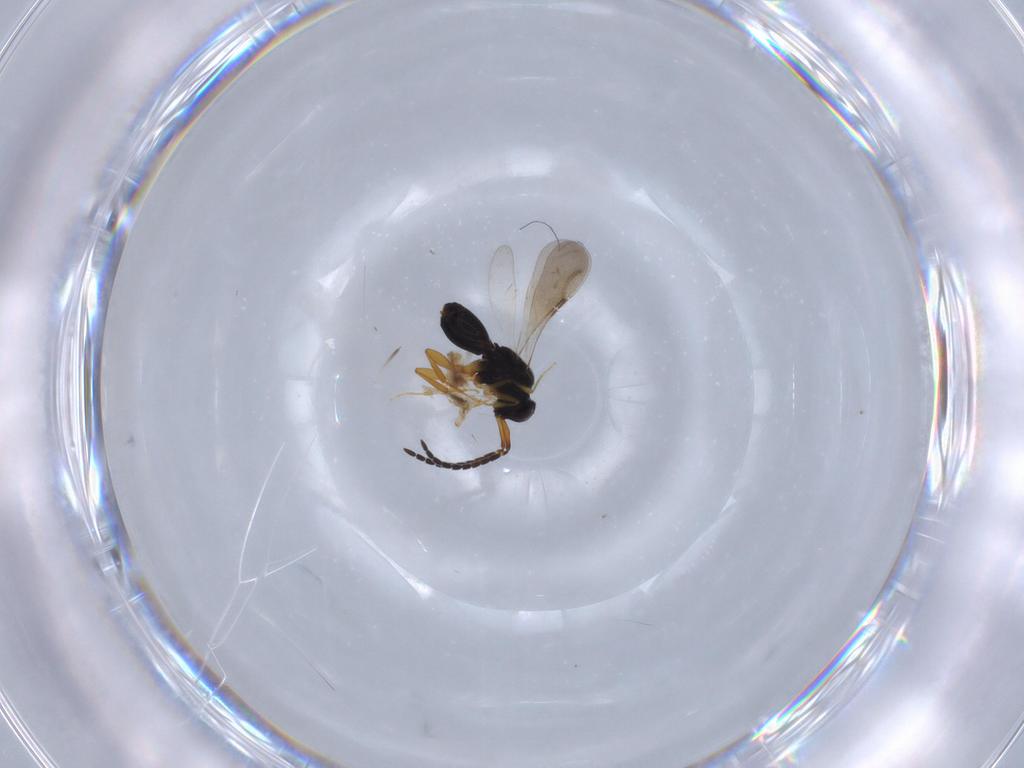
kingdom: Animalia
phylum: Arthropoda
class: Insecta
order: Hymenoptera
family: Formicidae
